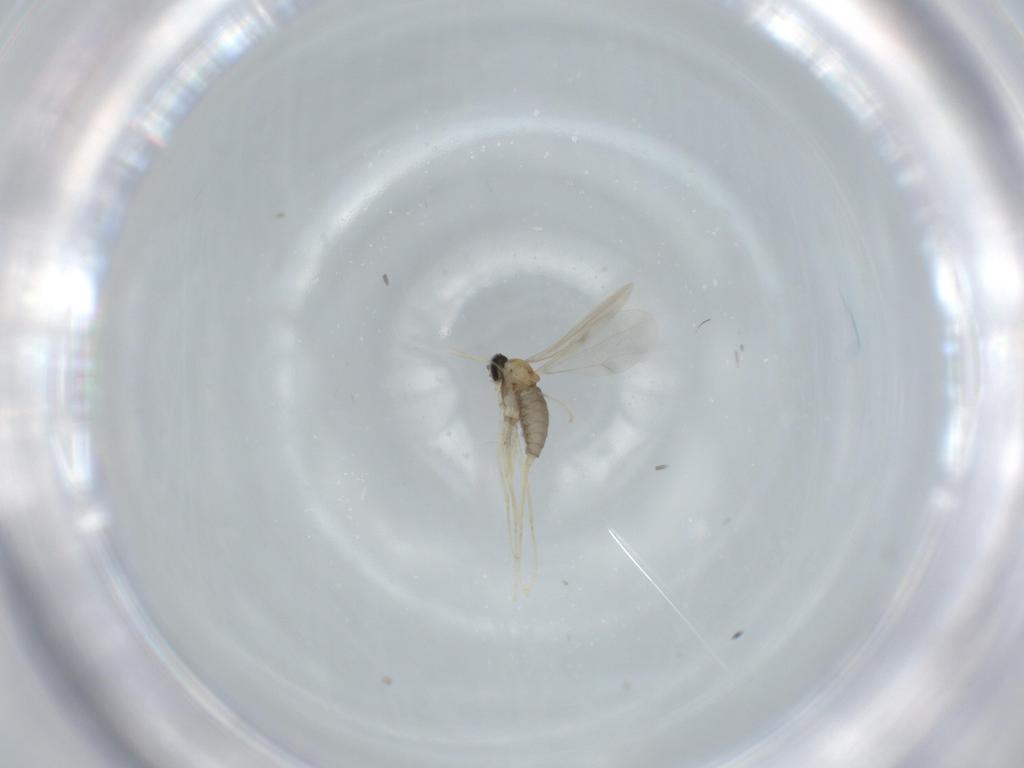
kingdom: Animalia
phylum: Arthropoda
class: Insecta
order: Diptera
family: Cecidomyiidae
